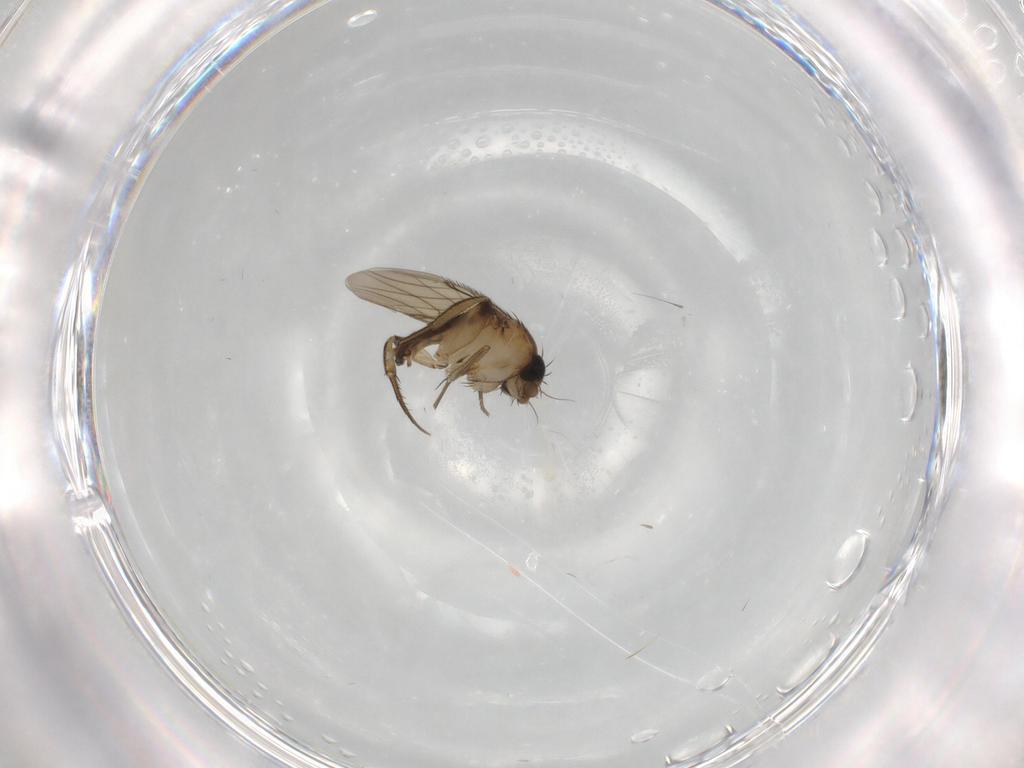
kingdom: Animalia
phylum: Arthropoda
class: Insecta
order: Diptera
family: Phoridae
